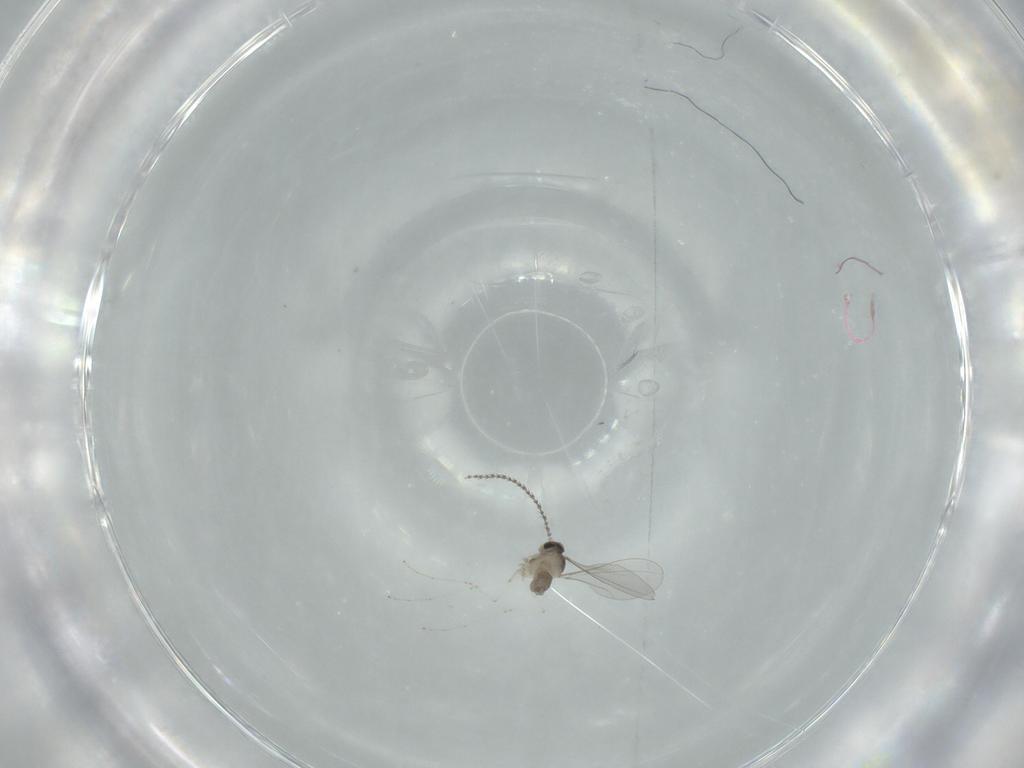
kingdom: Animalia
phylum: Arthropoda
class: Insecta
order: Diptera
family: Cecidomyiidae
